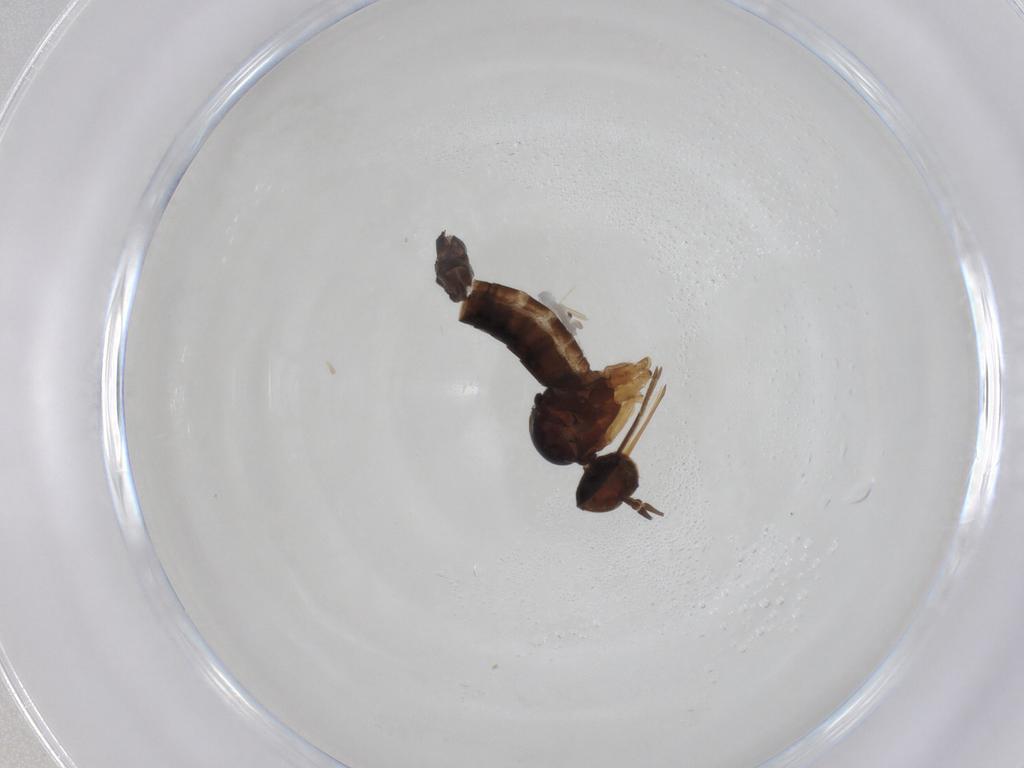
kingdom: Animalia
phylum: Arthropoda
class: Insecta
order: Diptera
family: Dolichopodidae
